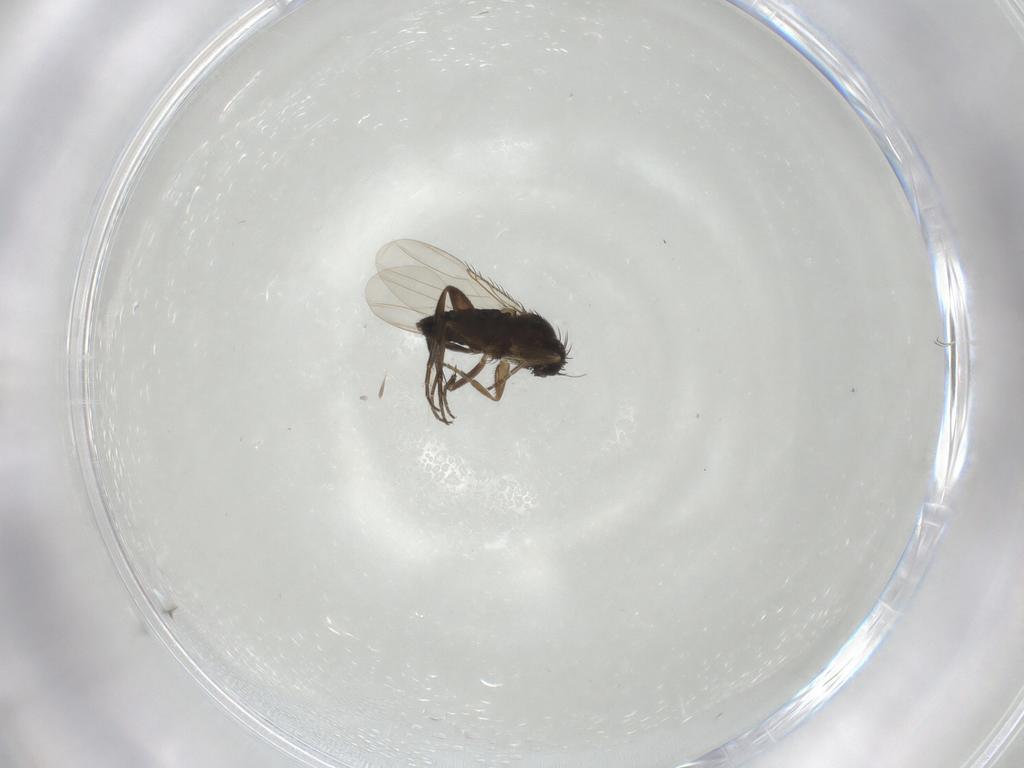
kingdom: Animalia
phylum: Arthropoda
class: Insecta
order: Diptera
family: Phoridae
